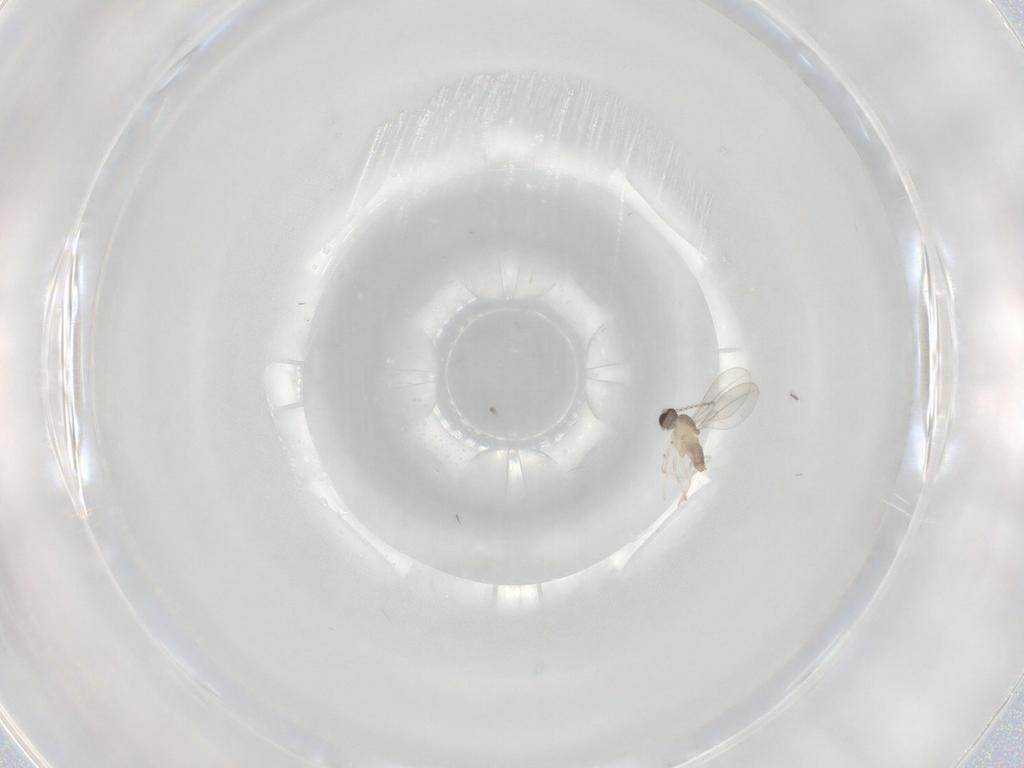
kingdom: Animalia
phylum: Arthropoda
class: Insecta
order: Diptera
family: Cecidomyiidae
